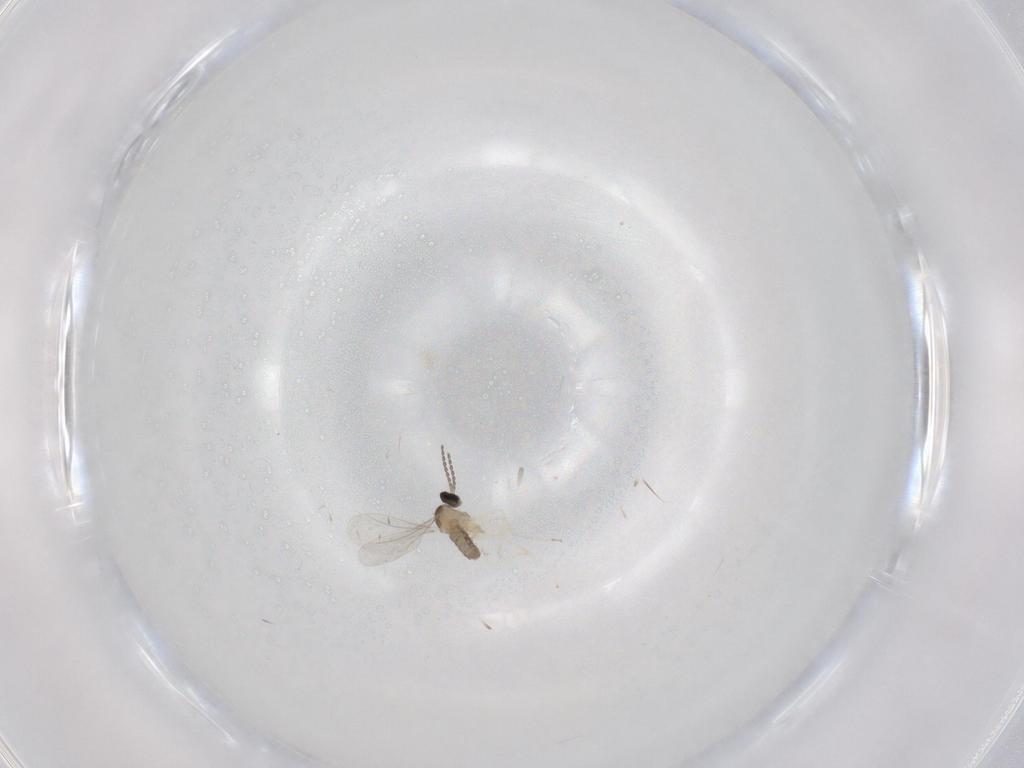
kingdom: Animalia
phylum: Arthropoda
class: Insecta
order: Diptera
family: Cecidomyiidae
